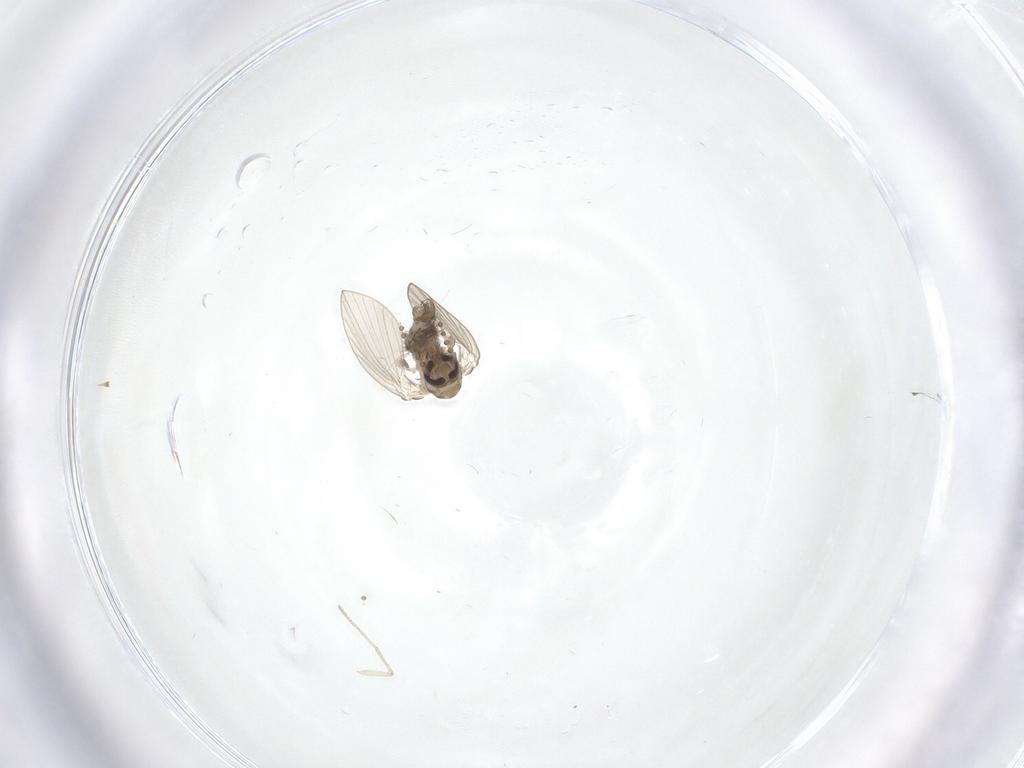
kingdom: Animalia
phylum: Arthropoda
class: Insecta
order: Diptera
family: Psychodidae
